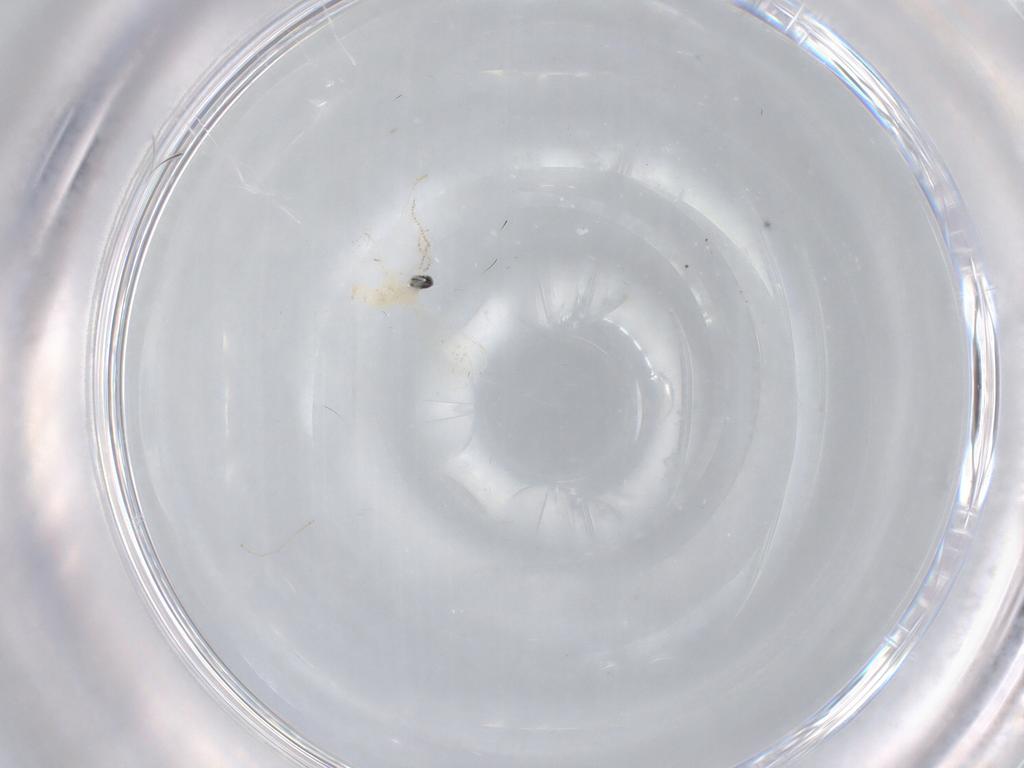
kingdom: Animalia
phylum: Arthropoda
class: Insecta
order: Diptera
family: Cecidomyiidae
